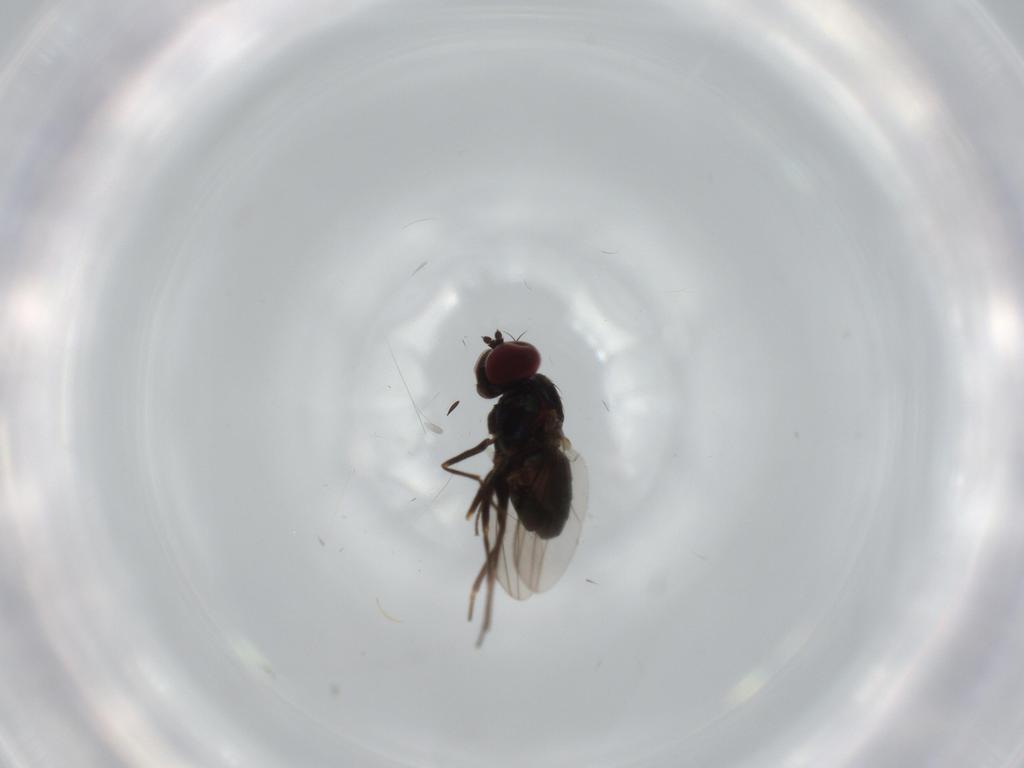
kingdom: Animalia
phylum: Arthropoda
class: Insecta
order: Diptera
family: Dolichopodidae
